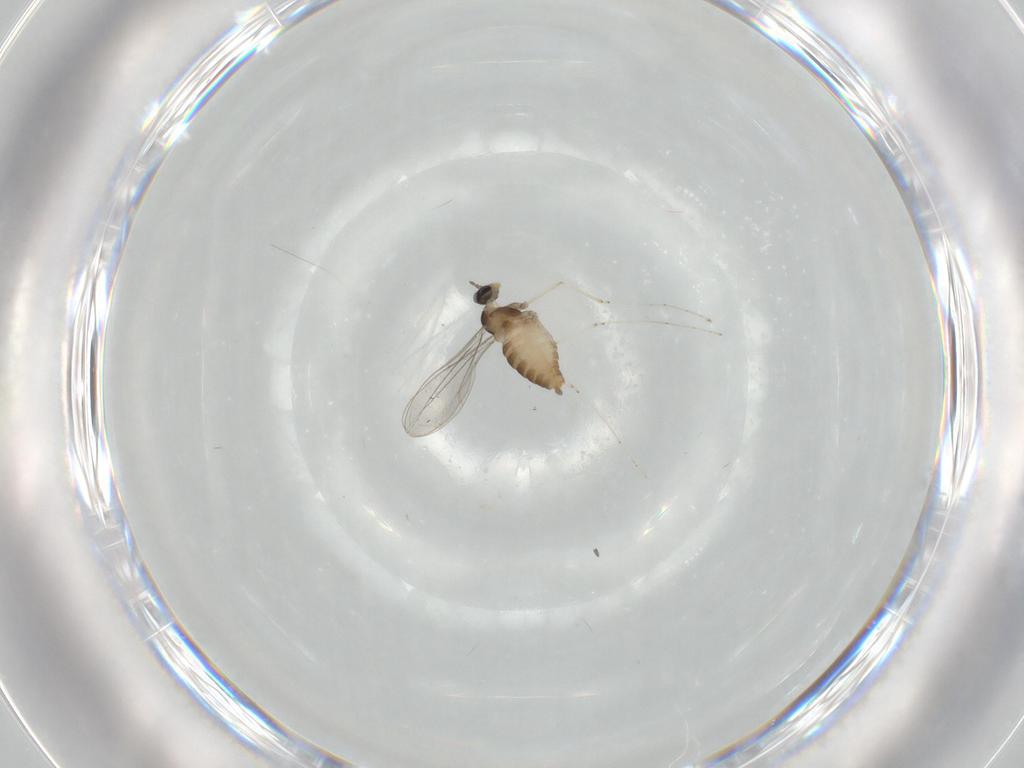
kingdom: Animalia
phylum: Arthropoda
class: Insecta
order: Diptera
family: Cecidomyiidae
